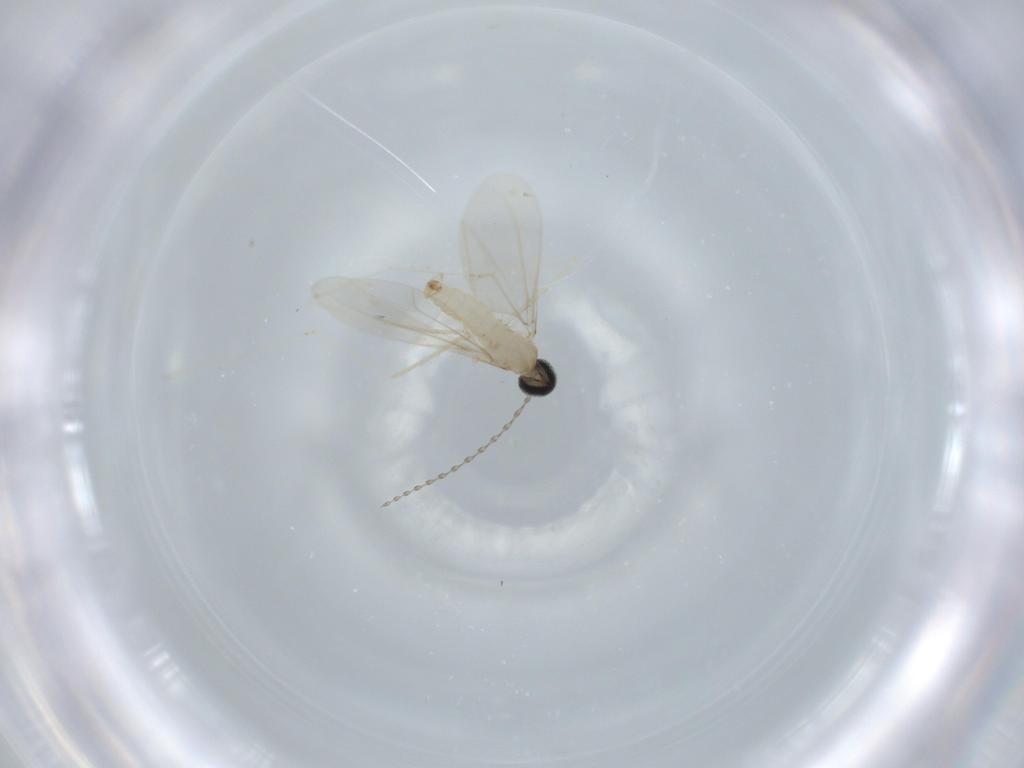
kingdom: Animalia
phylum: Arthropoda
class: Insecta
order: Diptera
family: Cecidomyiidae
